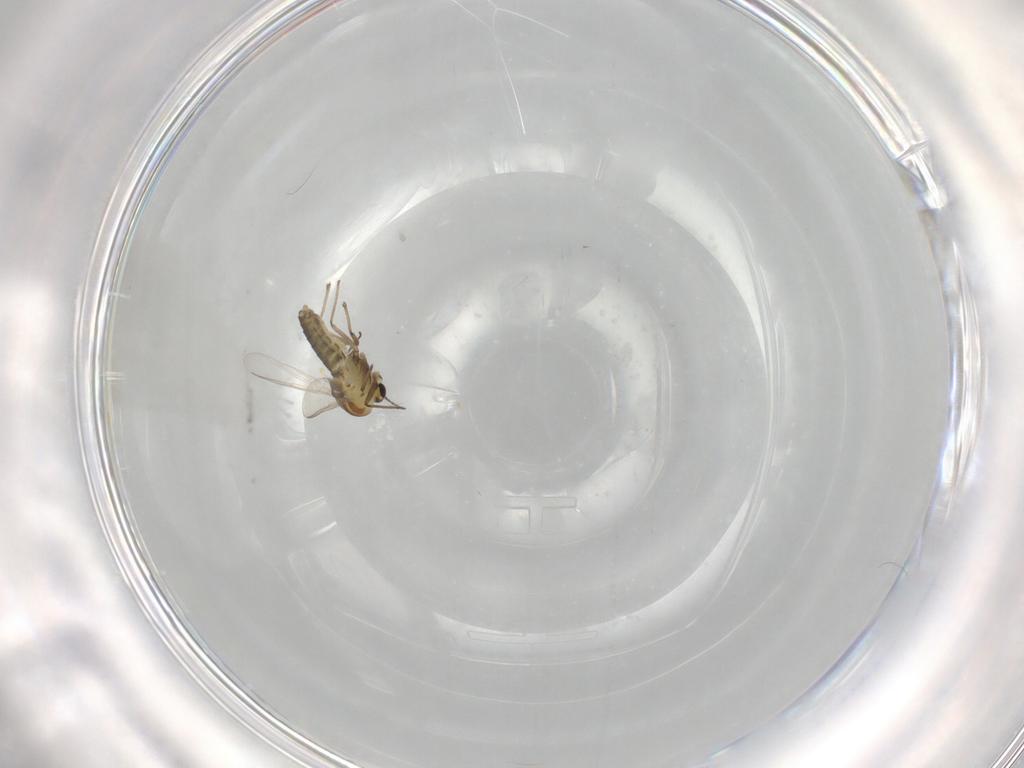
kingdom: Animalia
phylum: Arthropoda
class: Insecta
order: Diptera
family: Chironomidae
